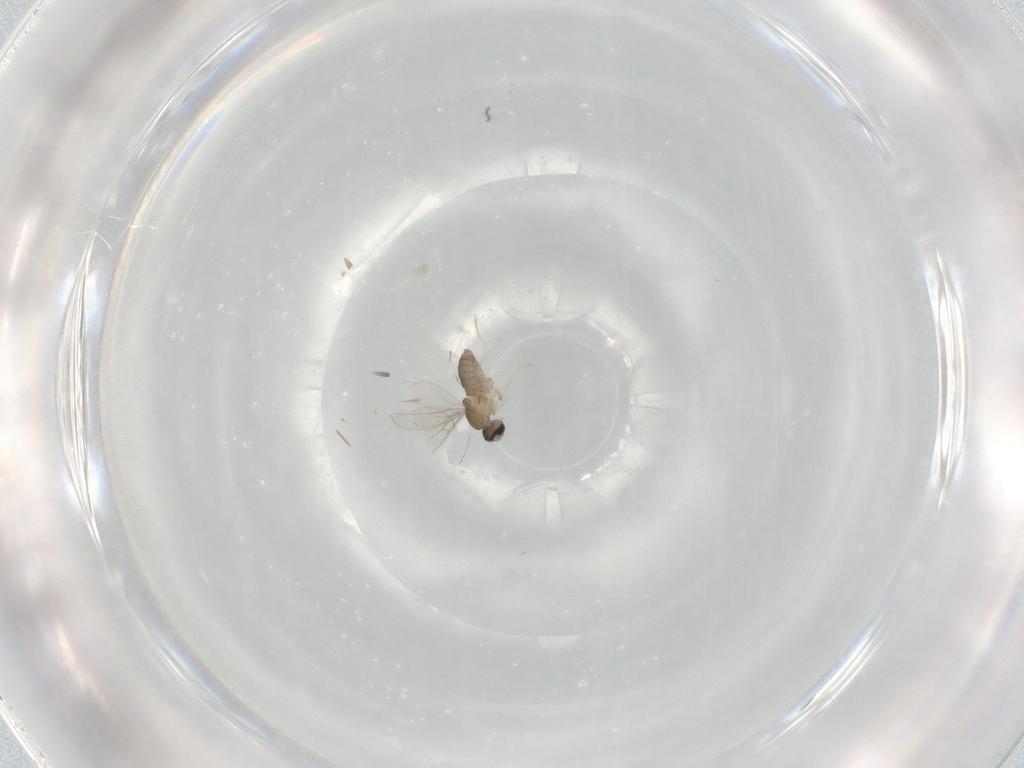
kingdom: Animalia
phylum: Arthropoda
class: Insecta
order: Diptera
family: Cecidomyiidae
